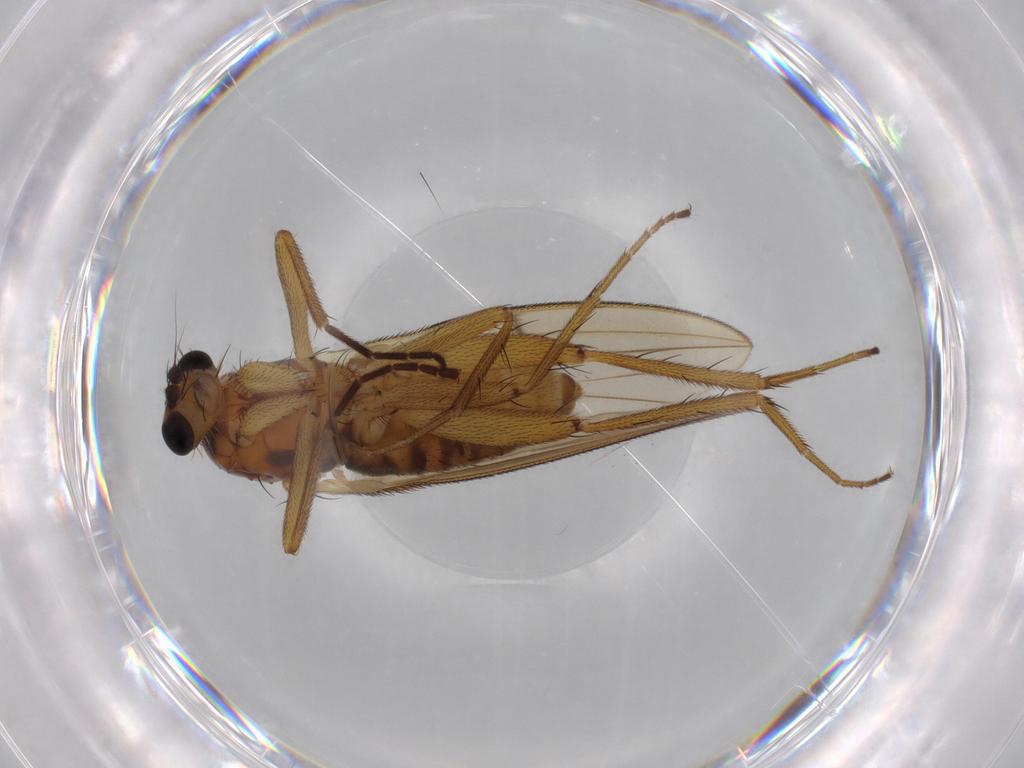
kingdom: Animalia
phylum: Arthropoda
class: Insecta
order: Diptera
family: Lonchopteridae
